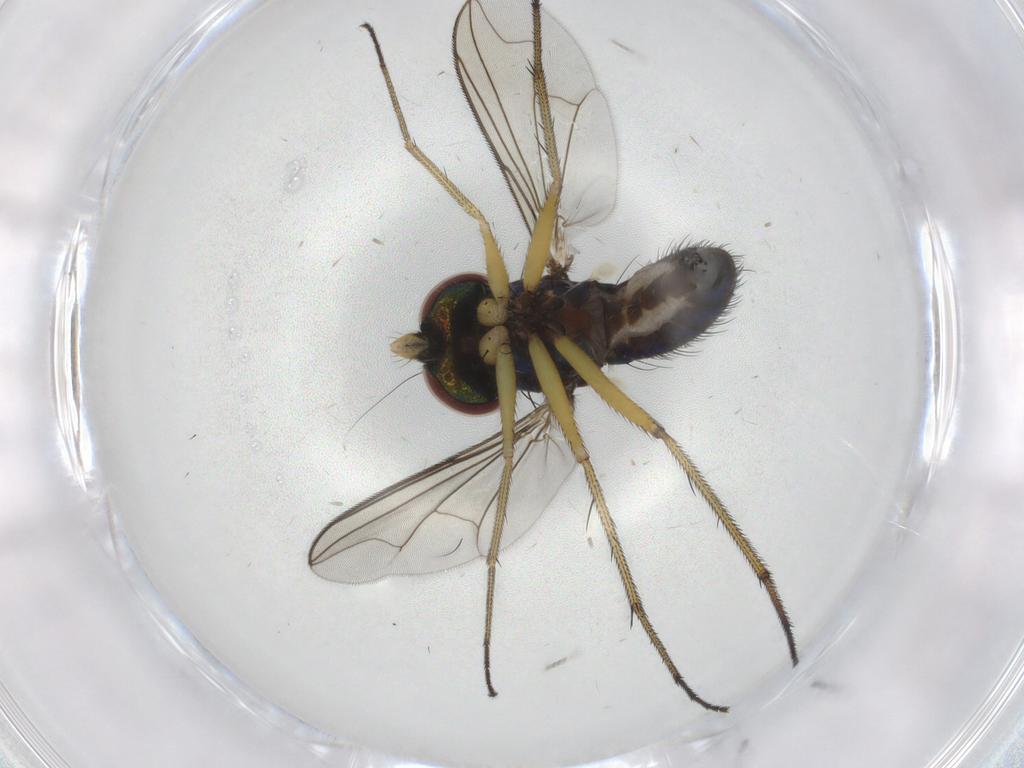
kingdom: Animalia
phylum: Arthropoda
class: Insecta
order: Diptera
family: Dolichopodidae
